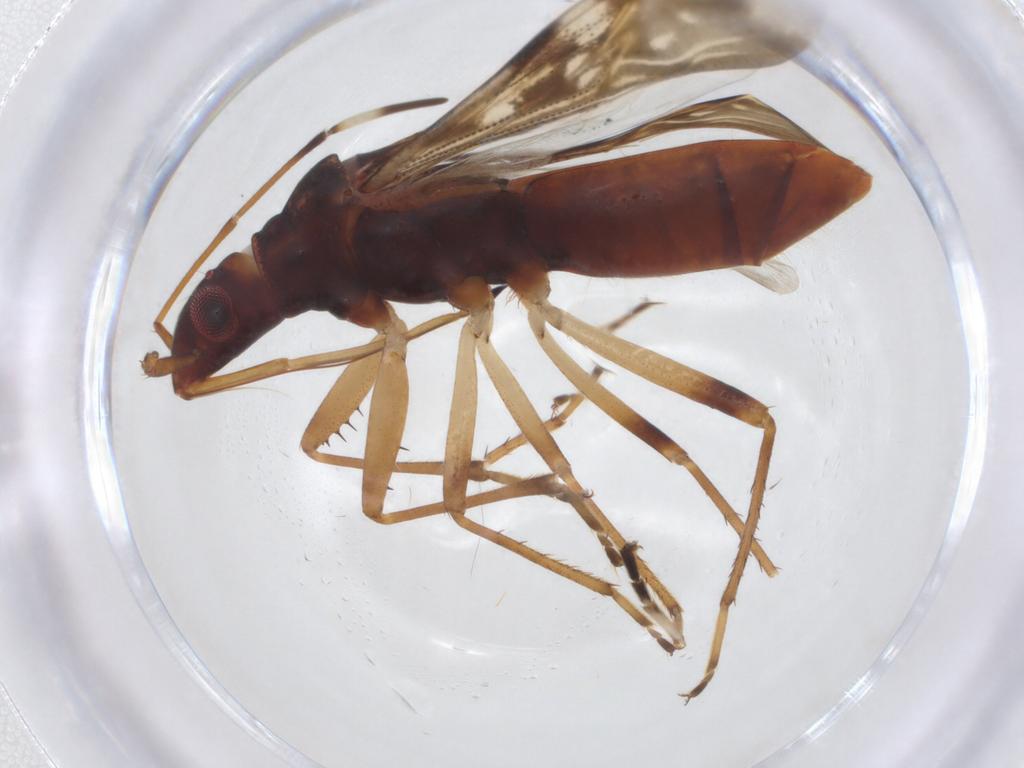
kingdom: Animalia
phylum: Arthropoda
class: Insecta
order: Hemiptera
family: Rhyparochromidae
